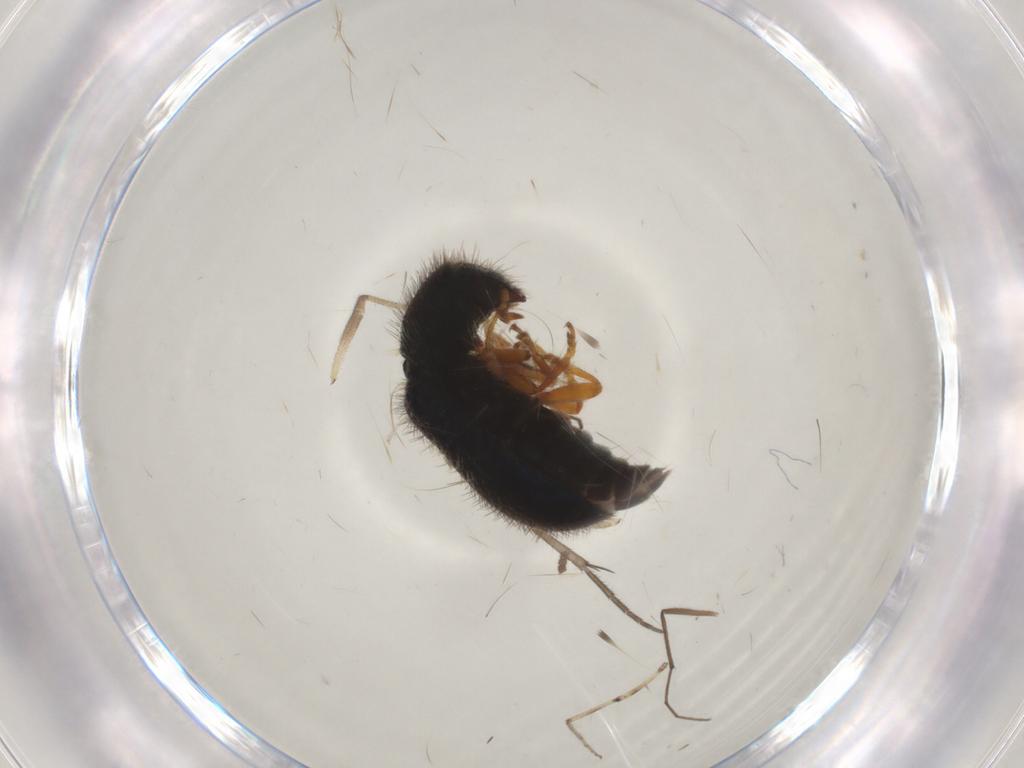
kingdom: Animalia
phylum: Arthropoda
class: Insecta
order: Coleoptera
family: Cleridae
